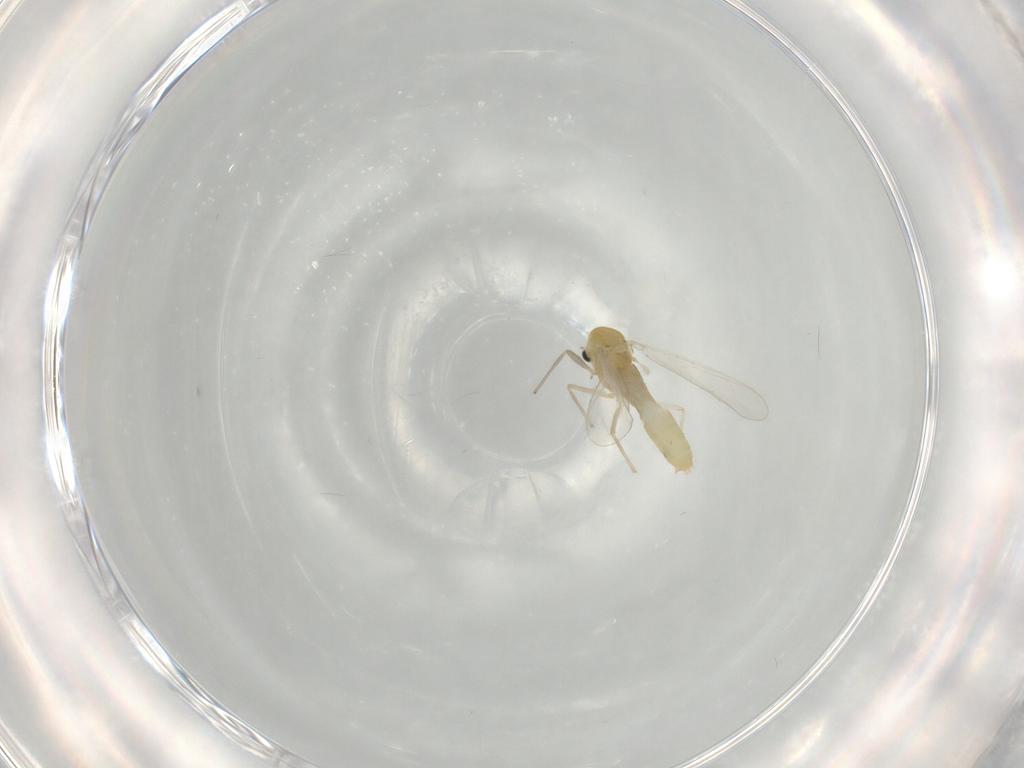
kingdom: Animalia
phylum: Arthropoda
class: Insecta
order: Diptera
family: Chironomidae
